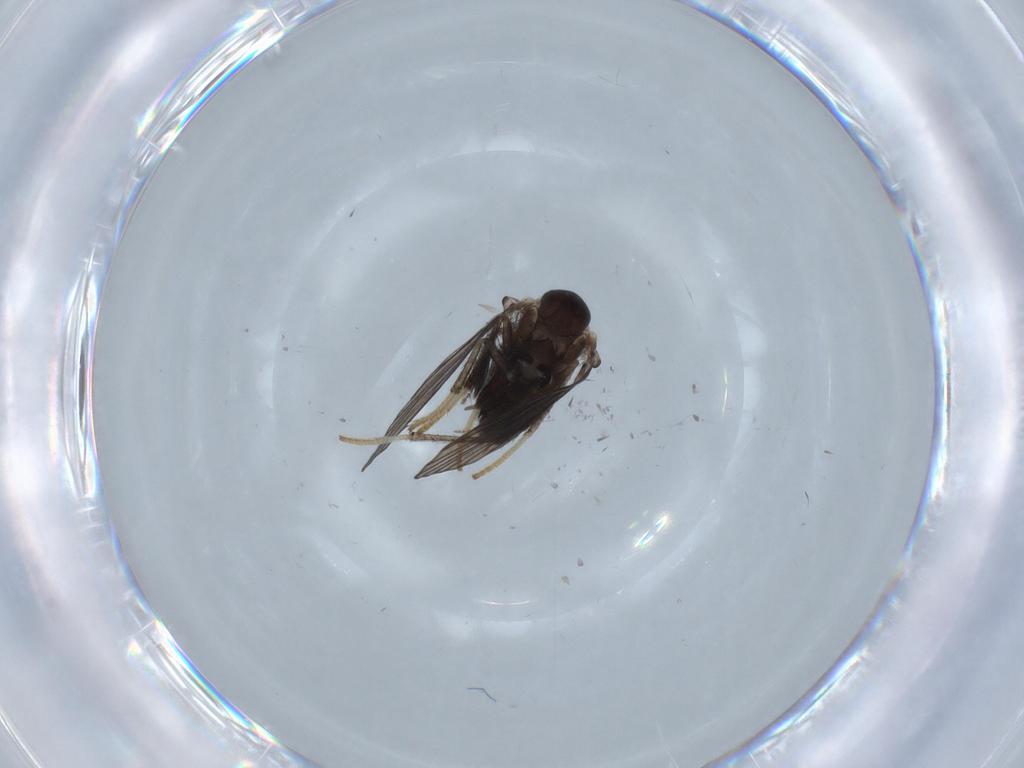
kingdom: Animalia
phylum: Arthropoda
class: Insecta
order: Diptera
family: Psychodidae
